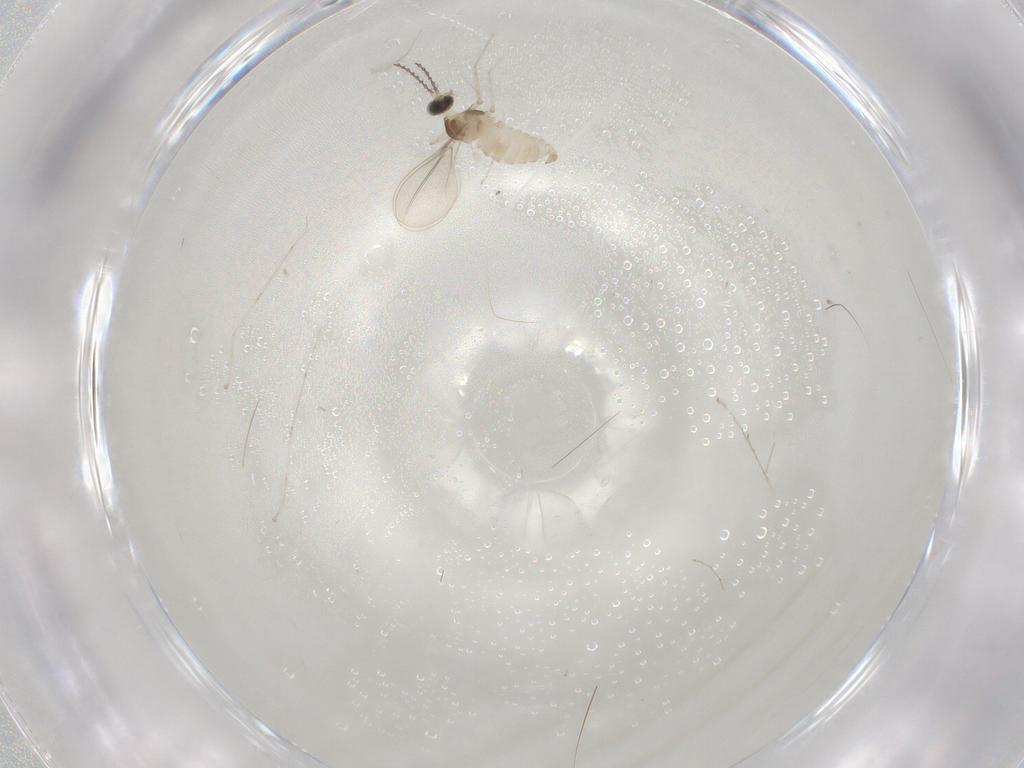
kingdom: Animalia
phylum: Arthropoda
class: Insecta
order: Diptera
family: Cecidomyiidae
